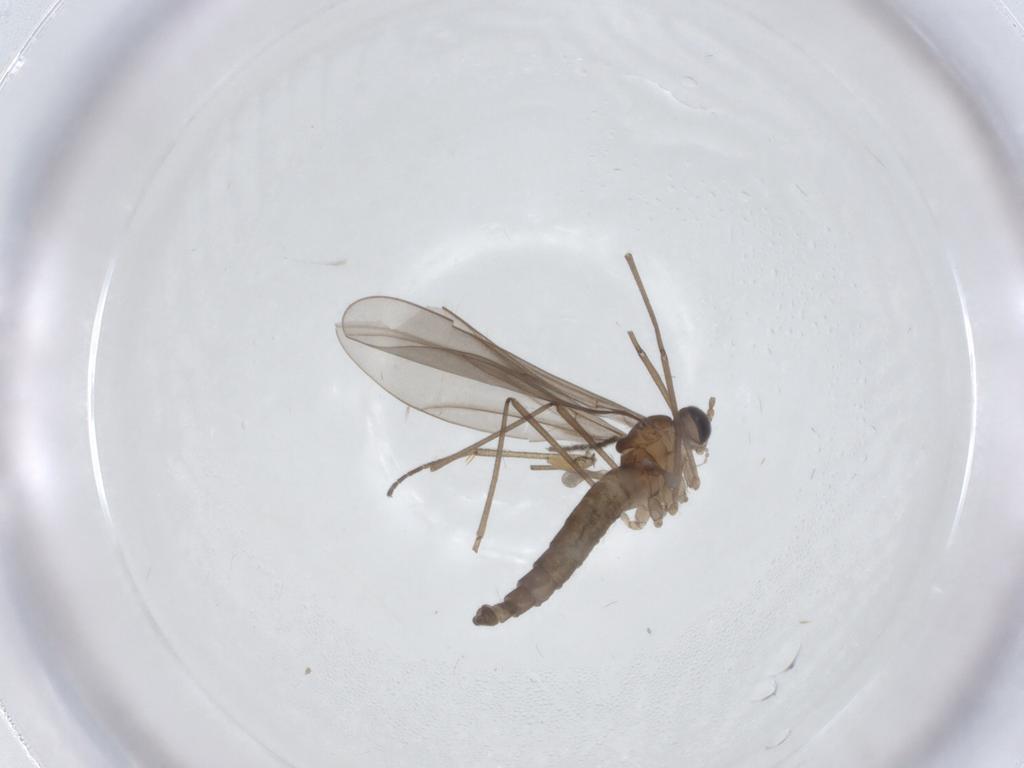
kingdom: Animalia
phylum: Arthropoda
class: Insecta
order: Diptera
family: Cecidomyiidae
